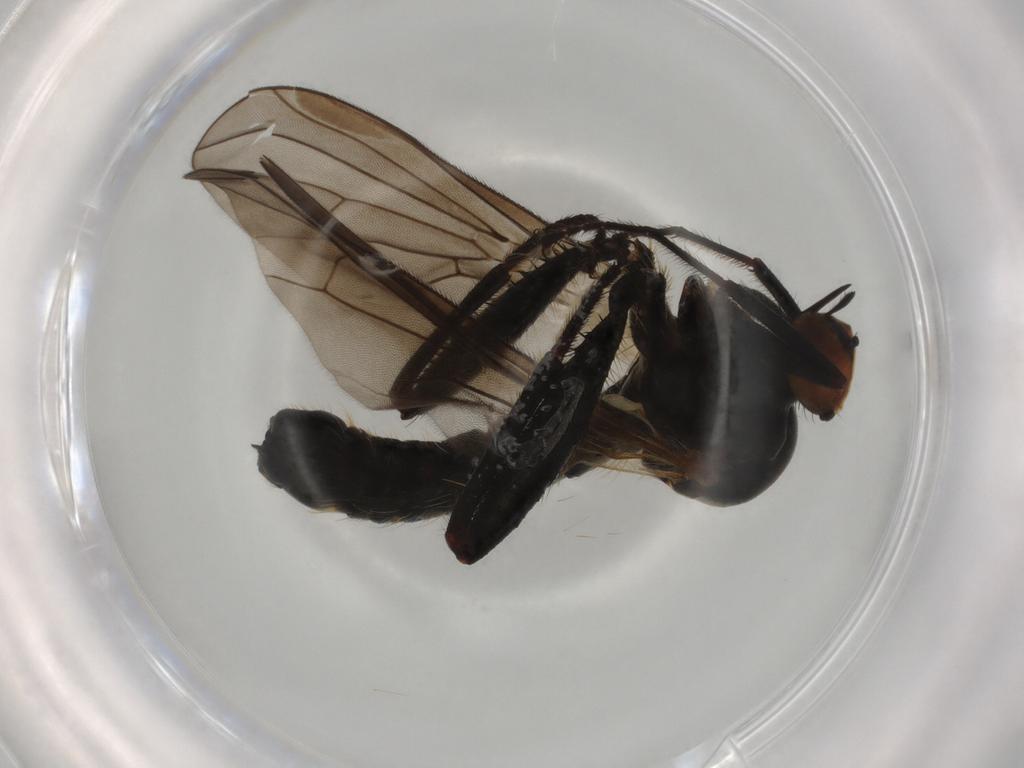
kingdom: Animalia
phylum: Arthropoda
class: Insecta
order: Diptera
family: Hybotidae
